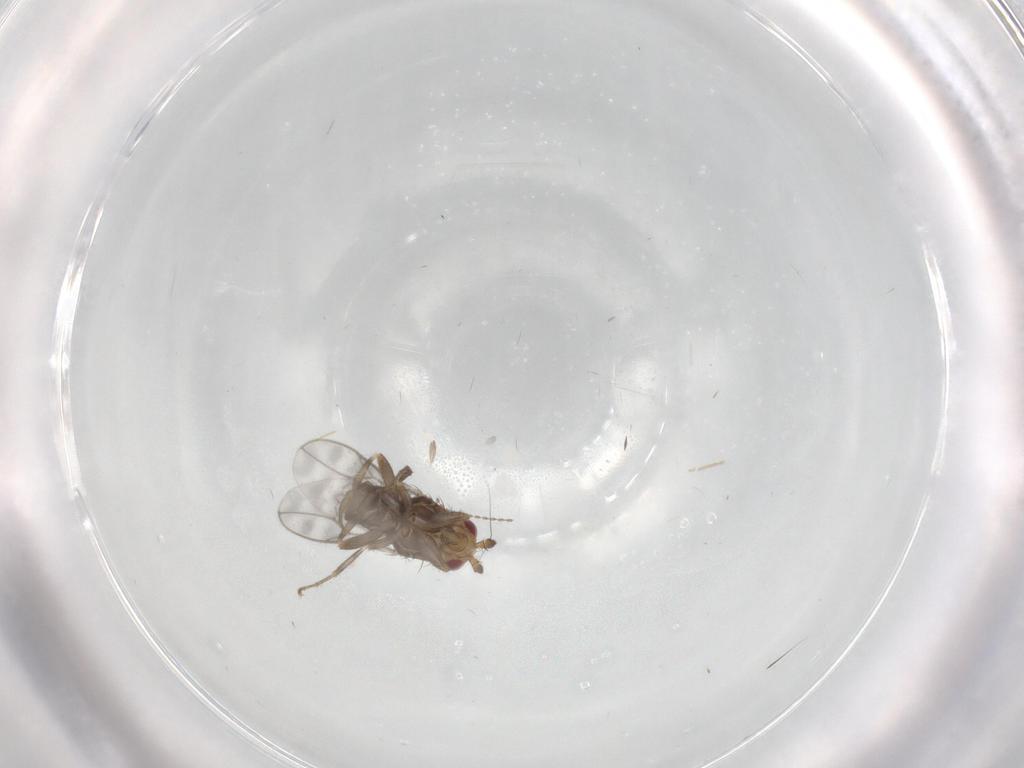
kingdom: Animalia
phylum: Arthropoda
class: Insecta
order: Diptera
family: Sphaeroceridae
